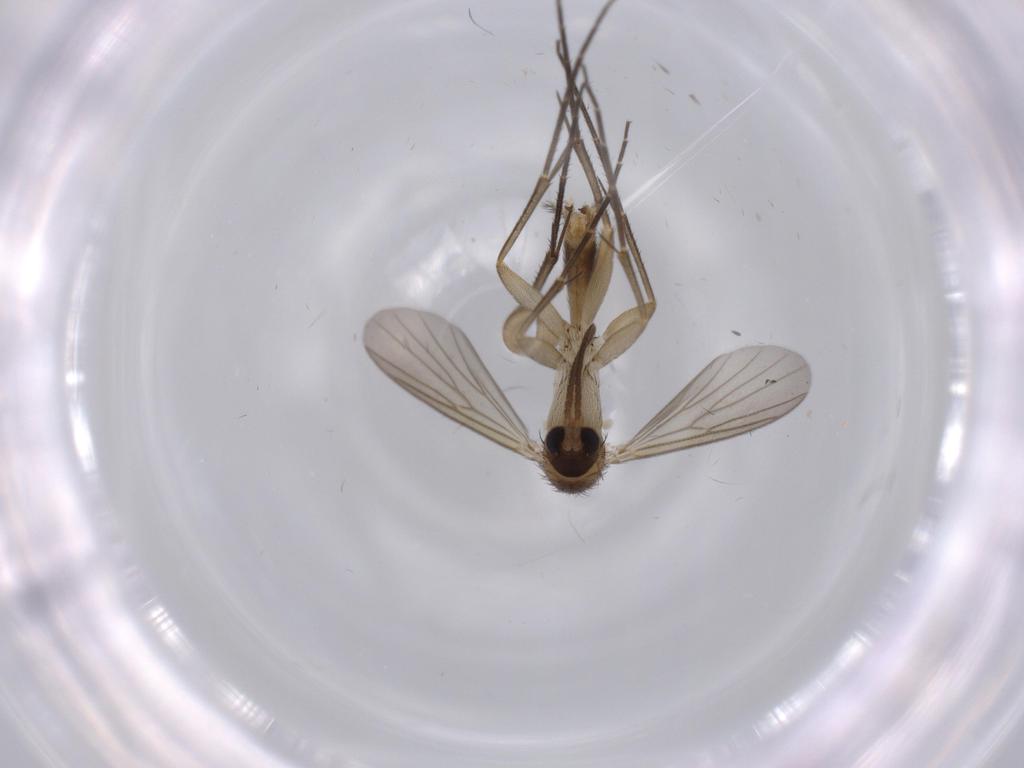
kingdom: Animalia
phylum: Arthropoda
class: Insecta
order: Diptera
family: Mycetophilidae
